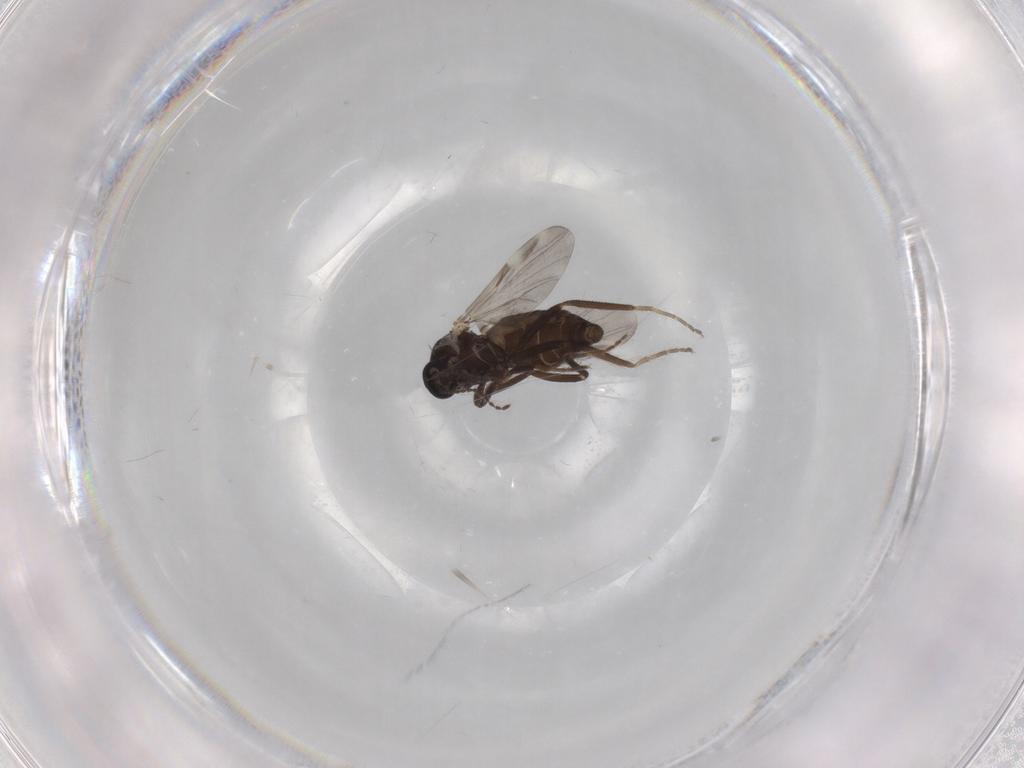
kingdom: Animalia
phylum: Arthropoda
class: Insecta
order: Diptera
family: Ceratopogonidae
